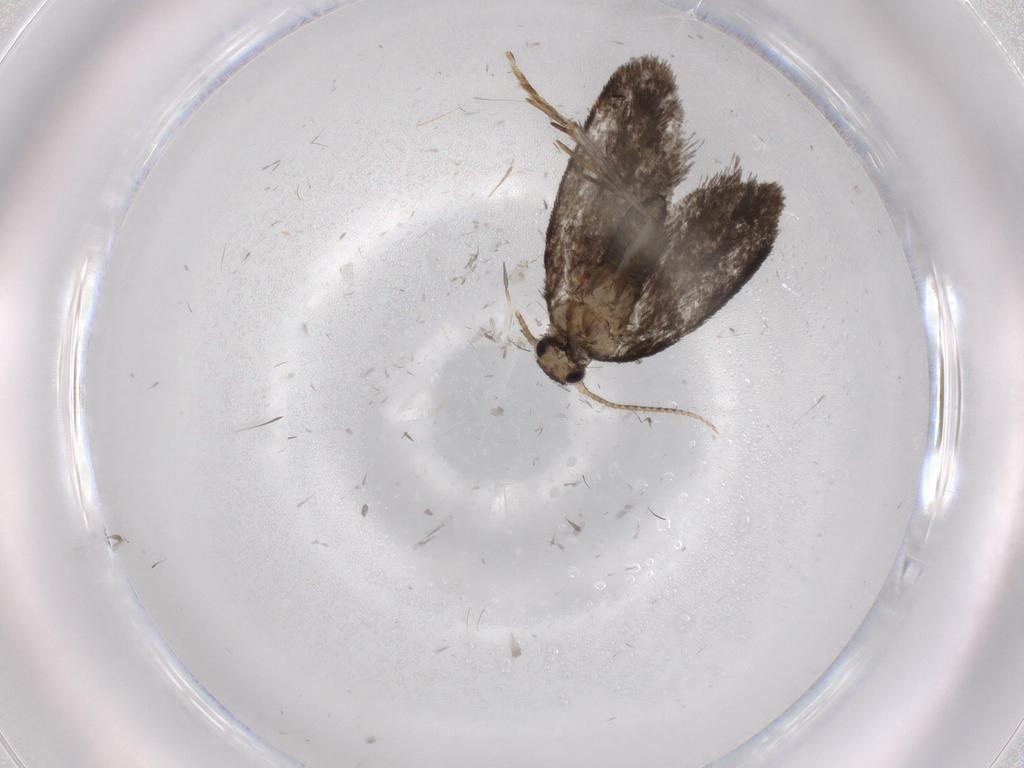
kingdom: Animalia
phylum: Arthropoda
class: Insecta
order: Lepidoptera
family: Psychidae
